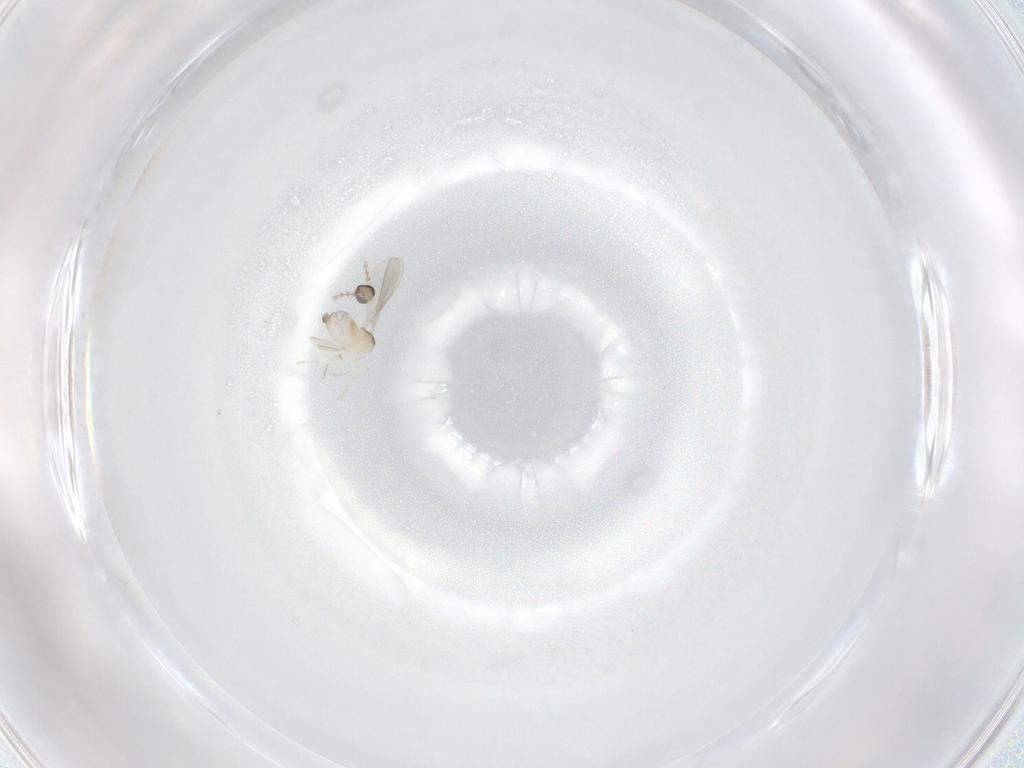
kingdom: Animalia
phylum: Arthropoda
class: Insecta
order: Diptera
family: Cecidomyiidae
